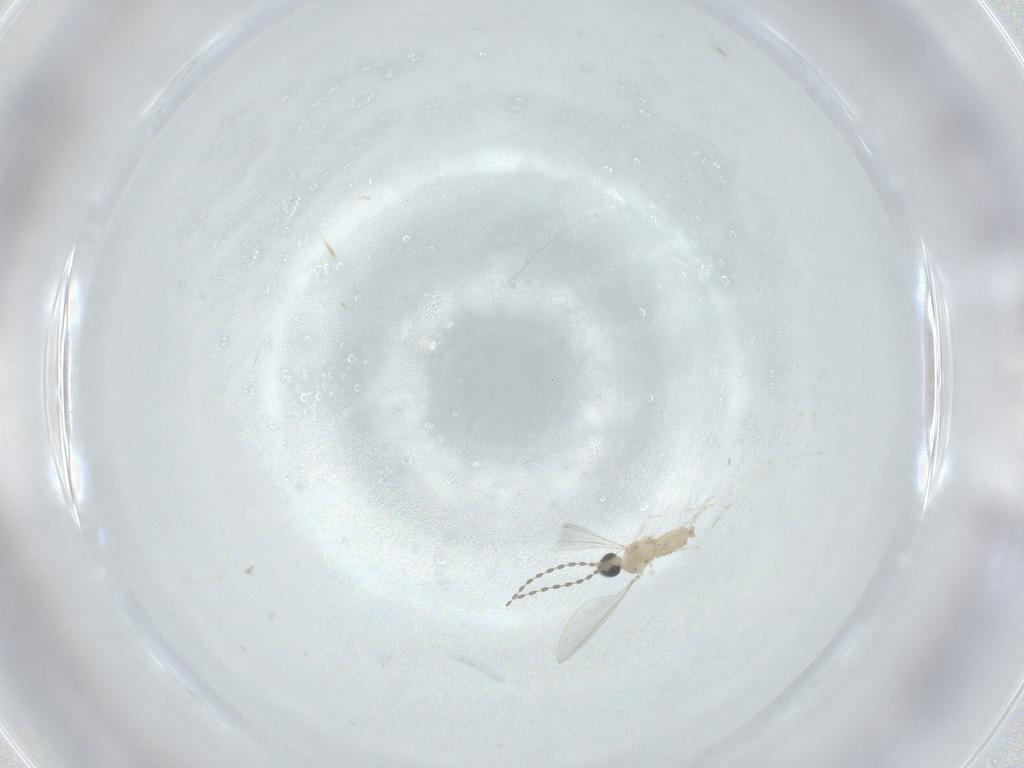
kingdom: Animalia
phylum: Arthropoda
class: Insecta
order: Diptera
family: Cecidomyiidae
